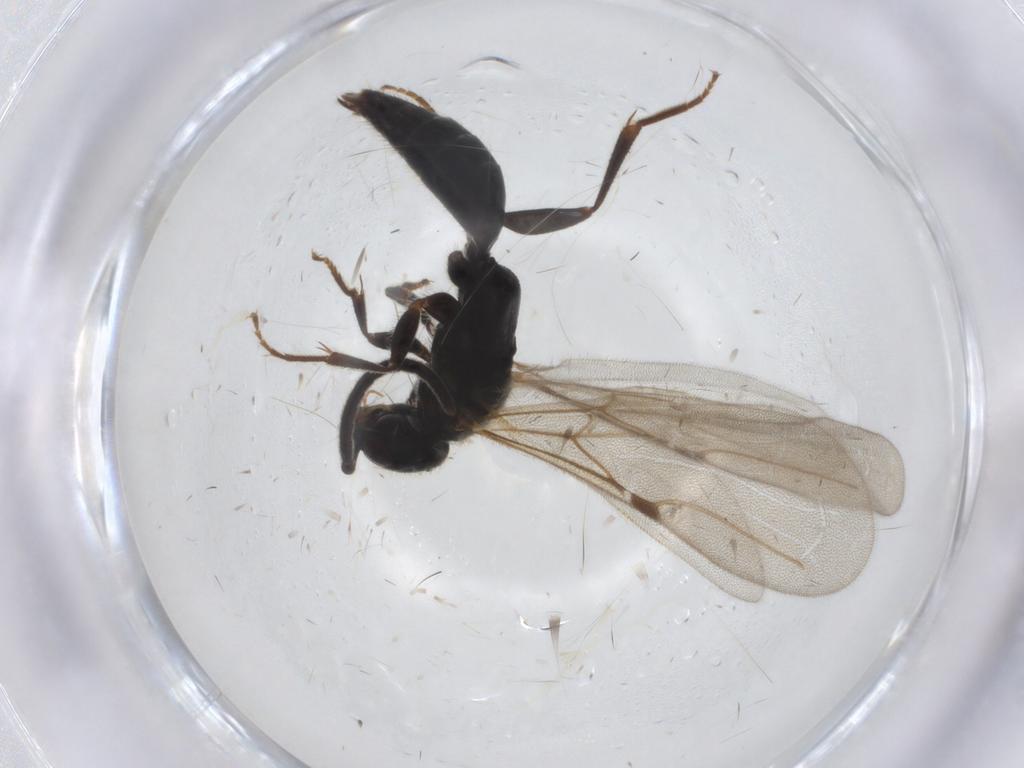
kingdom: Animalia
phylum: Arthropoda
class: Insecta
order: Hymenoptera
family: Bethylidae
